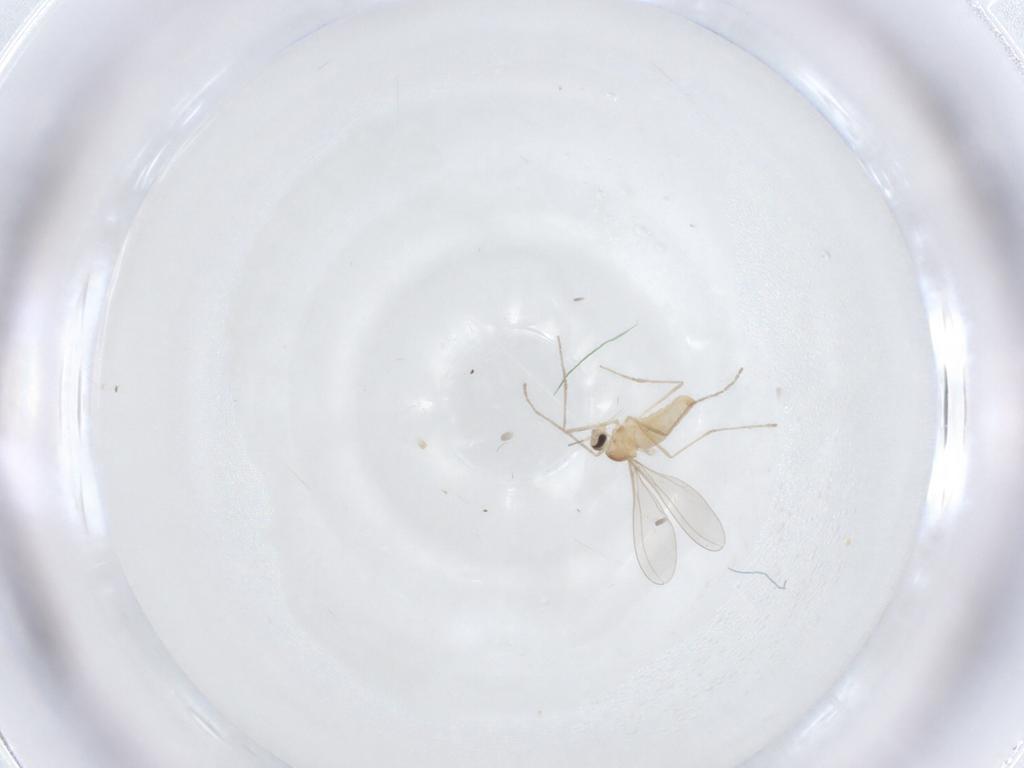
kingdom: Animalia
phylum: Arthropoda
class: Insecta
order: Diptera
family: Cecidomyiidae
